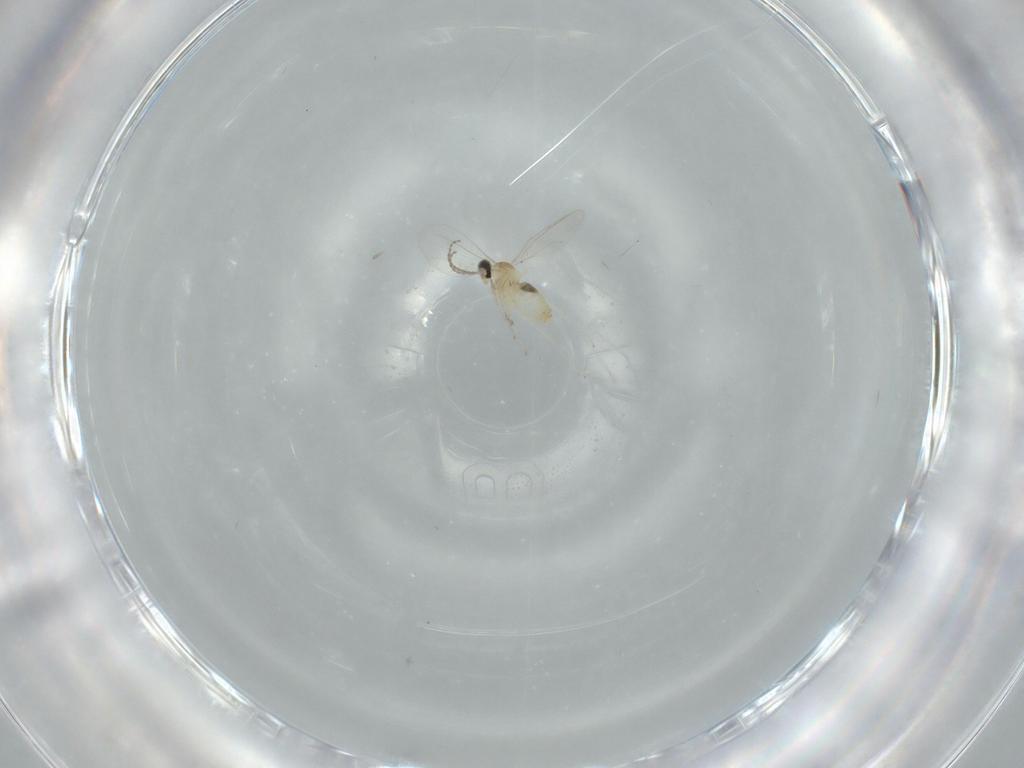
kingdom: Animalia
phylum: Arthropoda
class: Insecta
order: Diptera
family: Cecidomyiidae
